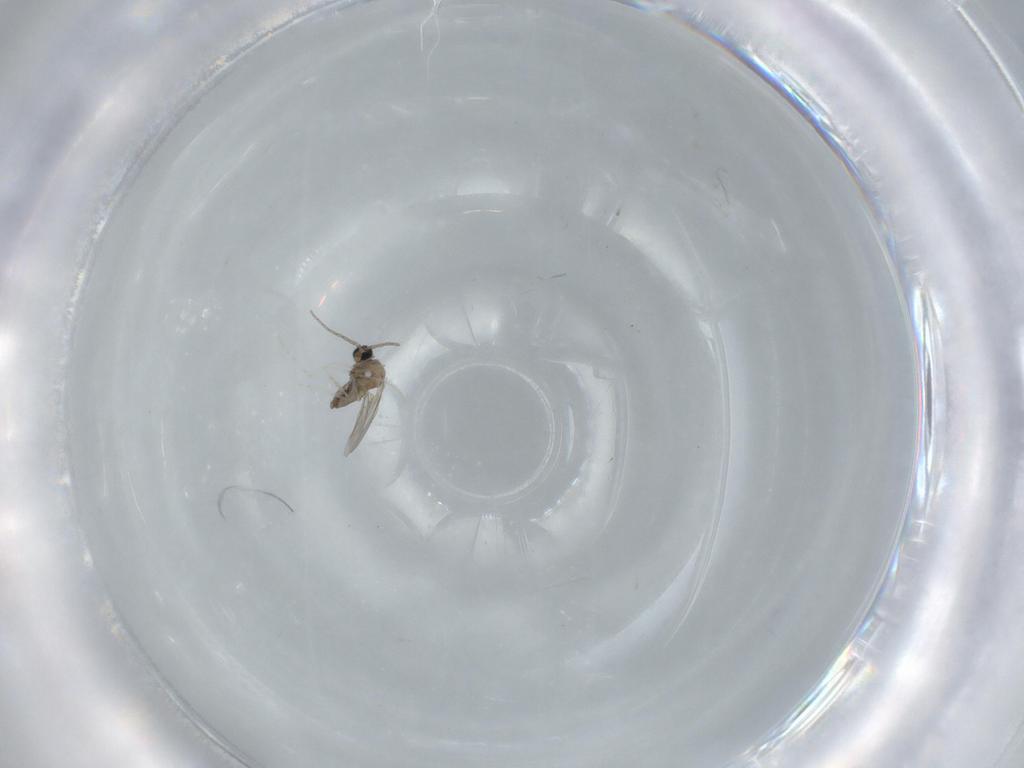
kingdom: Animalia
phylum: Arthropoda
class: Insecta
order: Diptera
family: Cecidomyiidae
